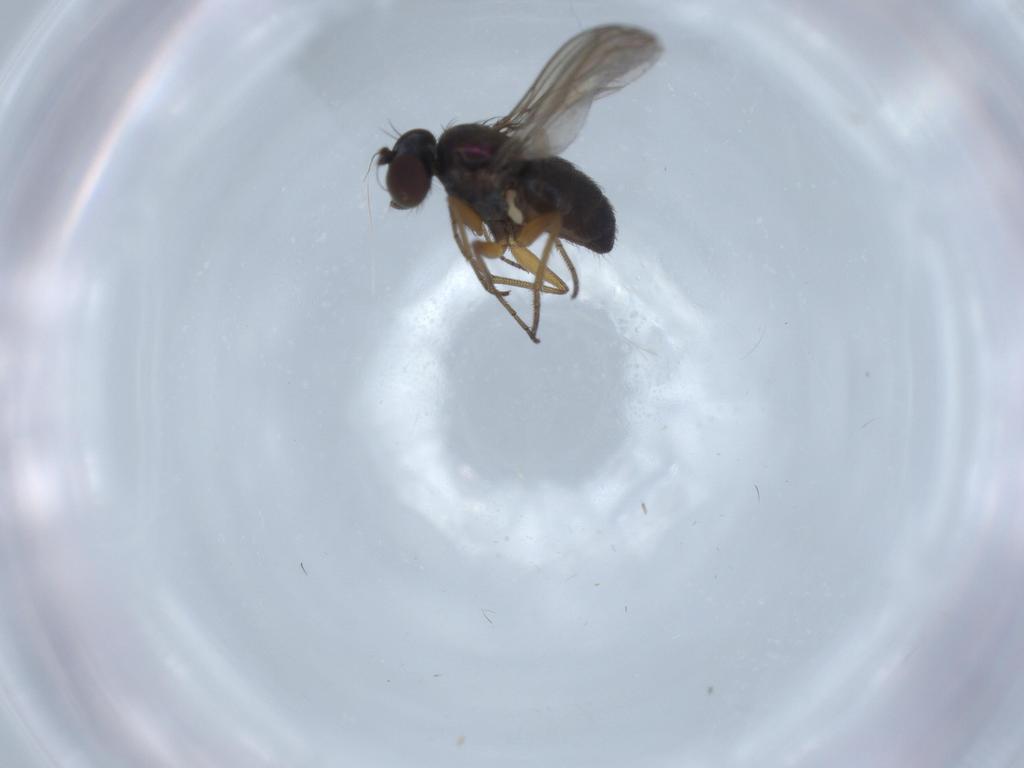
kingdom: Animalia
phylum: Arthropoda
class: Insecta
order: Diptera
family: Dolichopodidae
